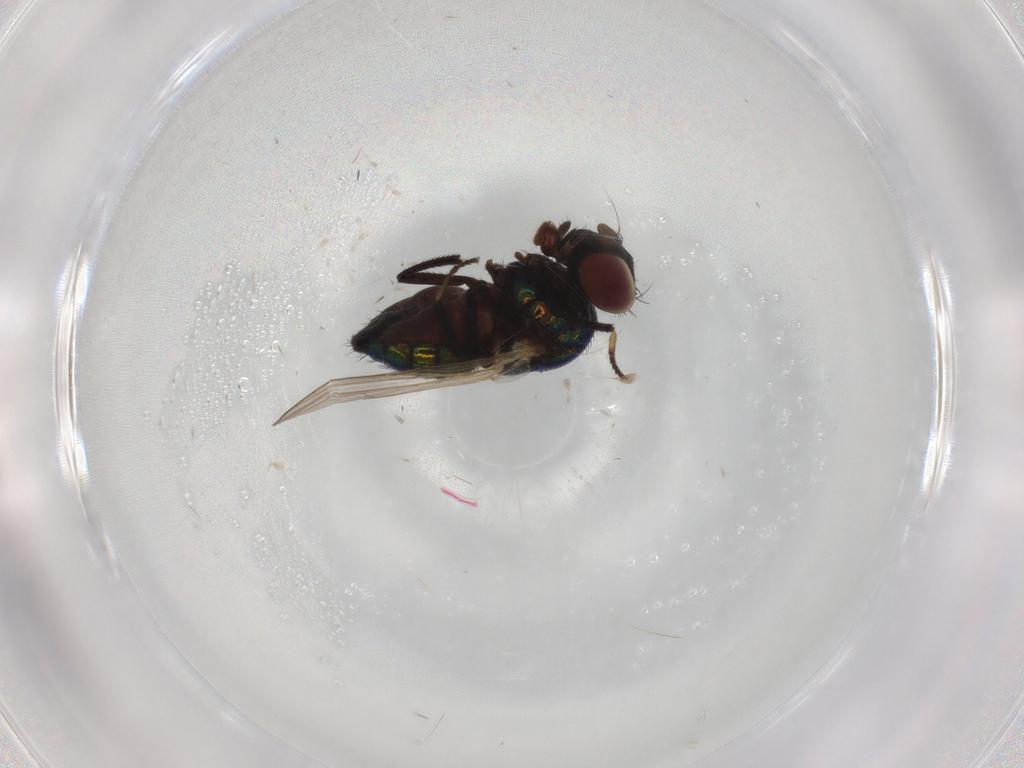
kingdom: Animalia
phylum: Arthropoda
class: Insecta
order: Diptera
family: Phoridae
